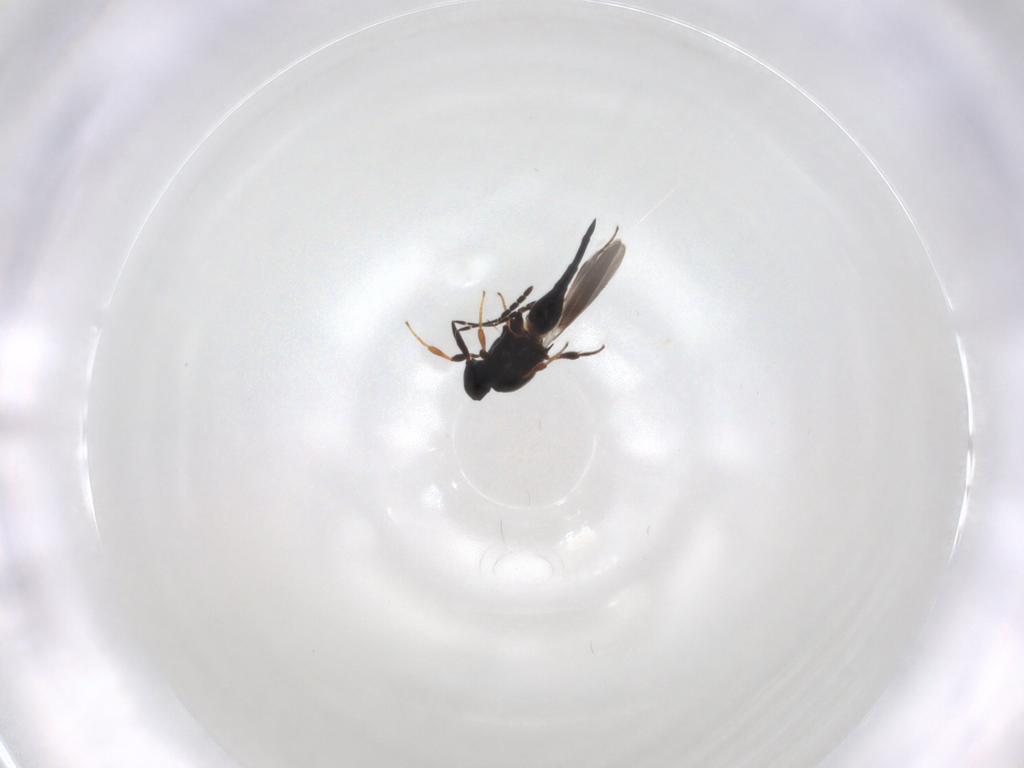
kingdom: Animalia
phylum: Arthropoda
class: Insecta
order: Hymenoptera
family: Platygastridae
